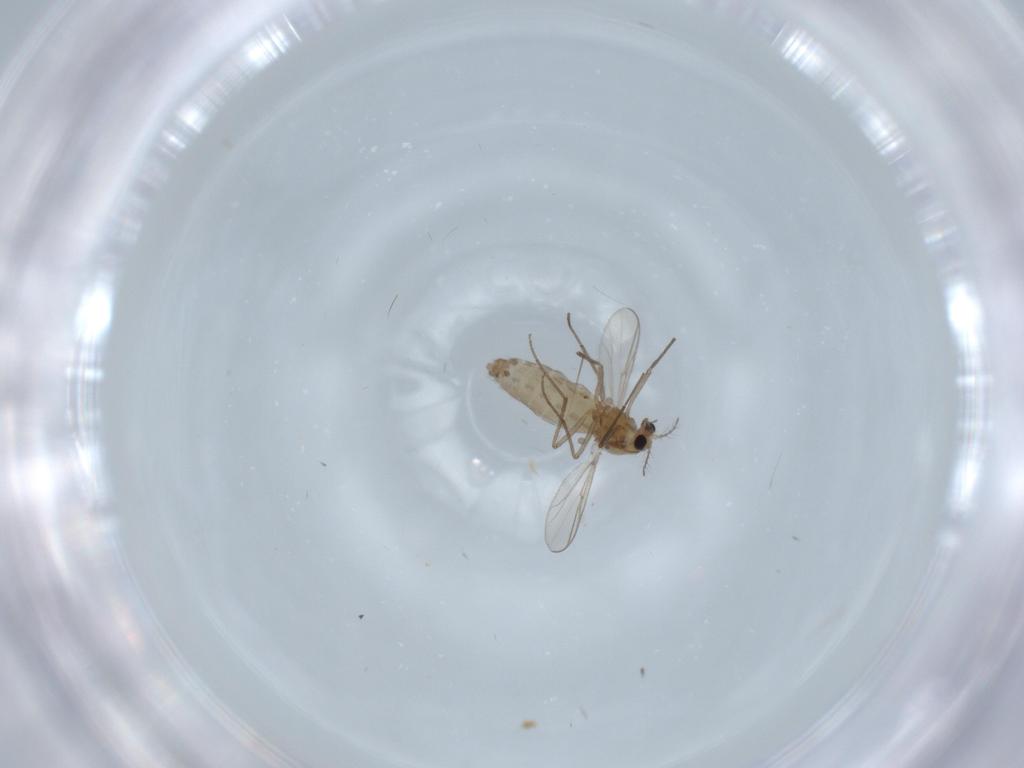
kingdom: Animalia
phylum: Arthropoda
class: Insecta
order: Diptera
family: Chironomidae
